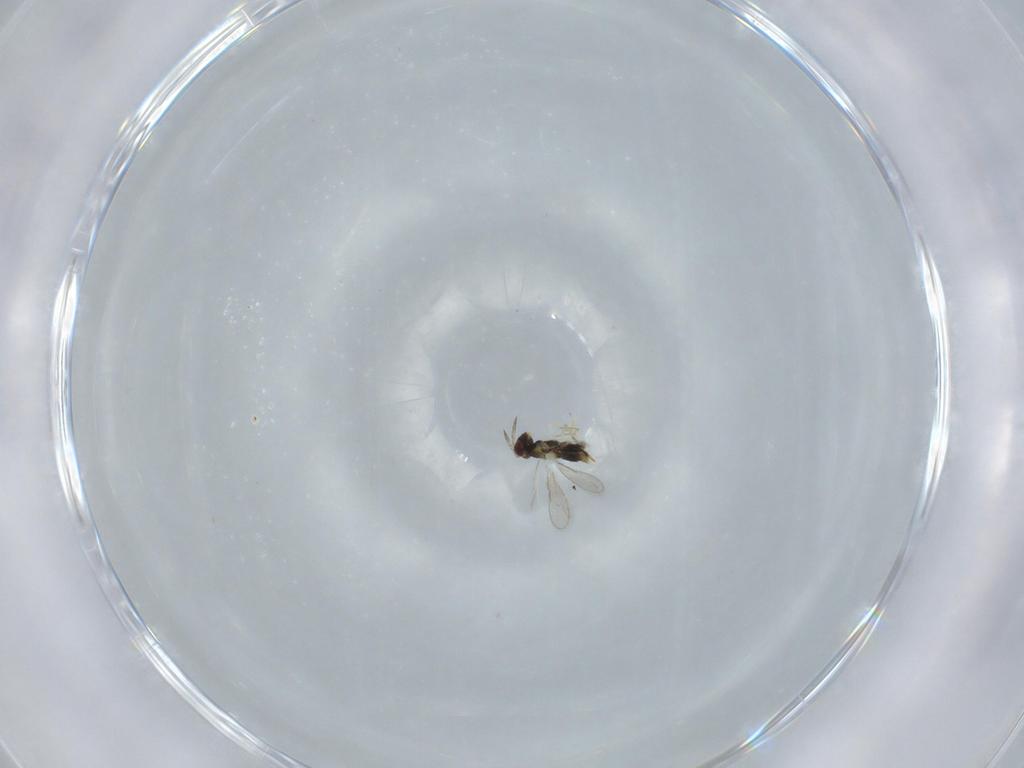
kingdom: Animalia
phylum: Arthropoda
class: Insecta
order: Hymenoptera
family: Aphelinidae
